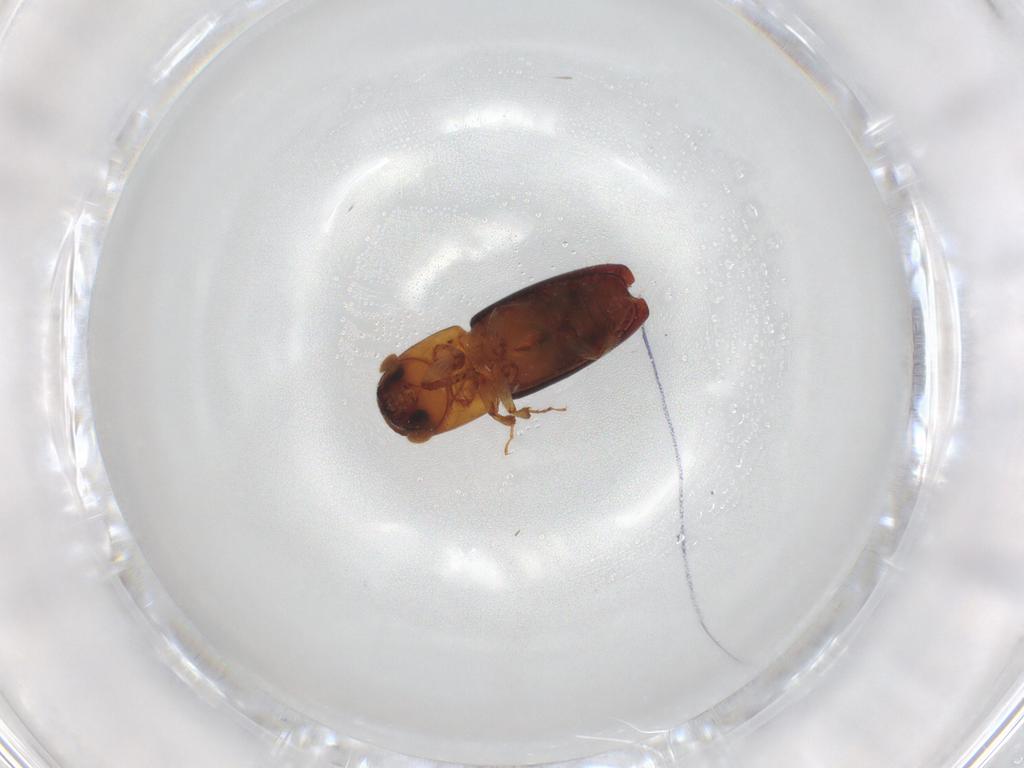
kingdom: Animalia
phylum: Arthropoda
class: Insecta
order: Coleoptera
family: Curculionidae
